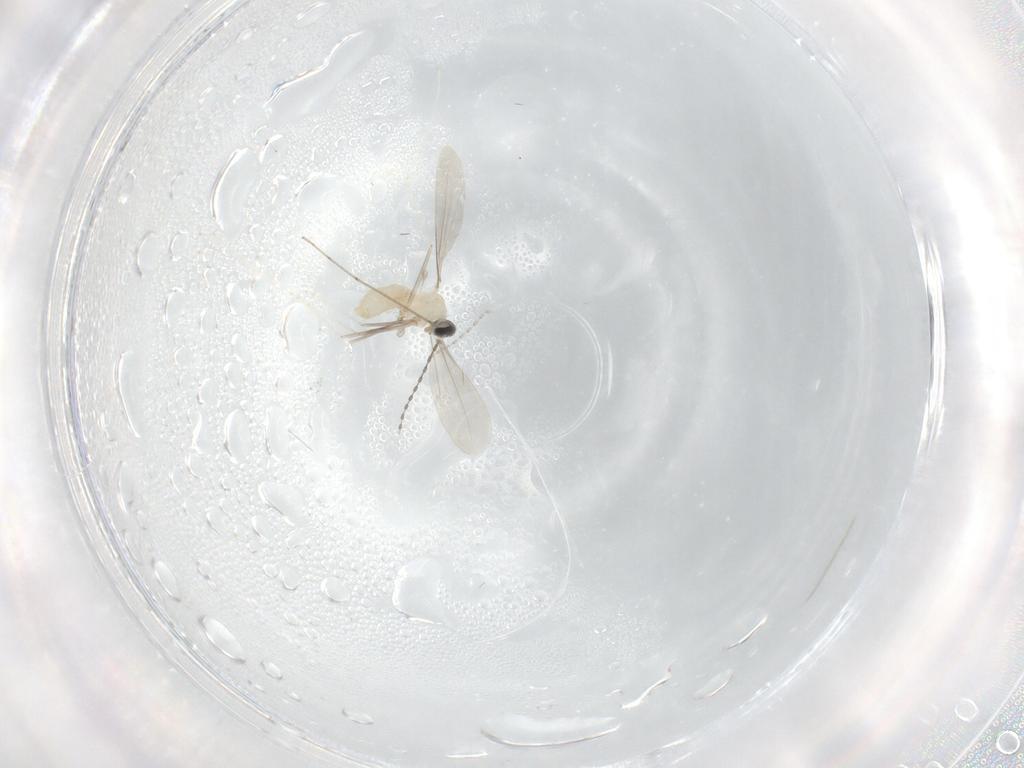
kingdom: Animalia
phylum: Arthropoda
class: Insecta
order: Diptera
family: Cecidomyiidae
